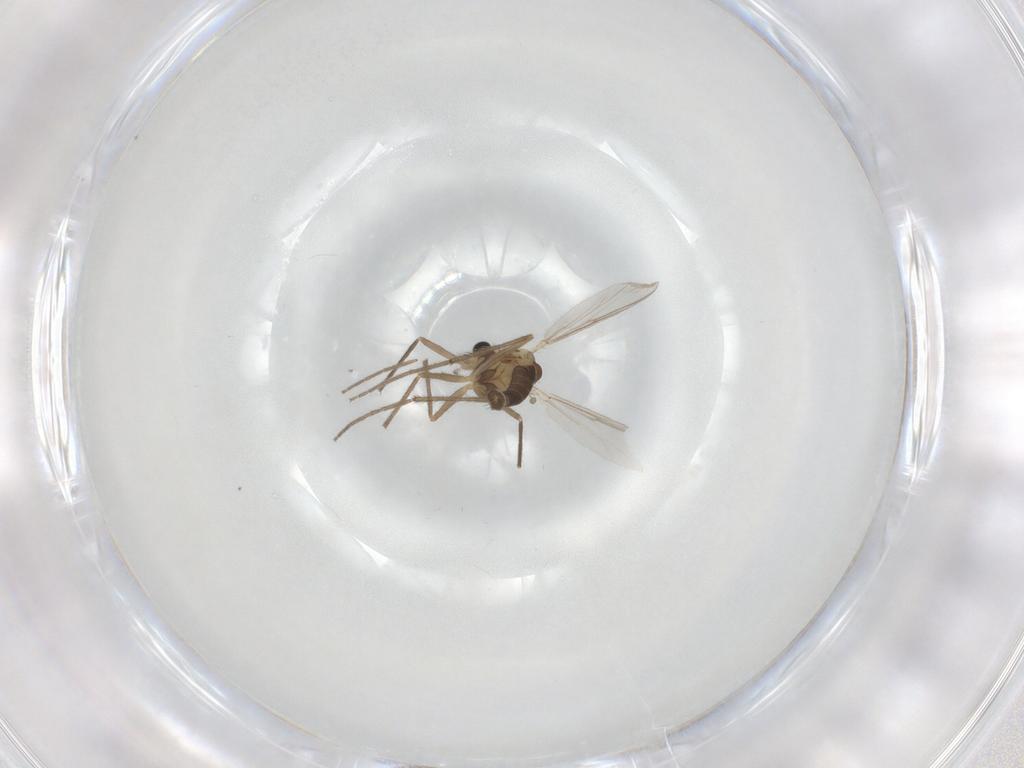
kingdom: Animalia
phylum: Arthropoda
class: Insecta
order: Diptera
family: Chironomidae
